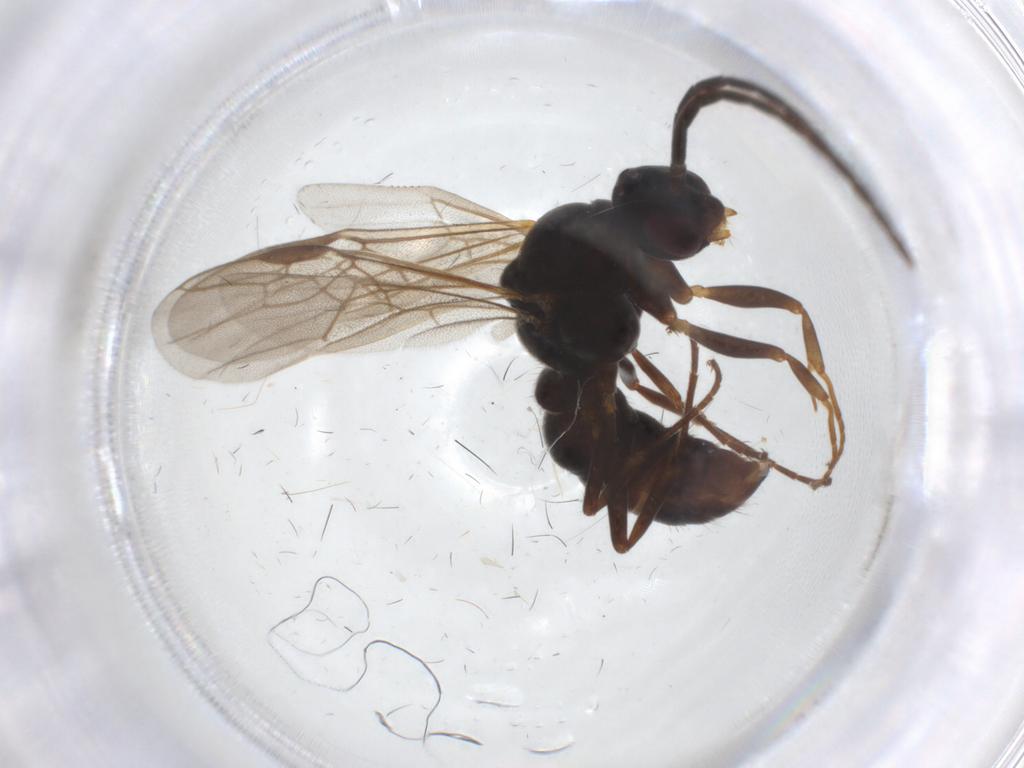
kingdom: Animalia
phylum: Arthropoda
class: Insecta
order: Hymenoptera
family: Formicidae
